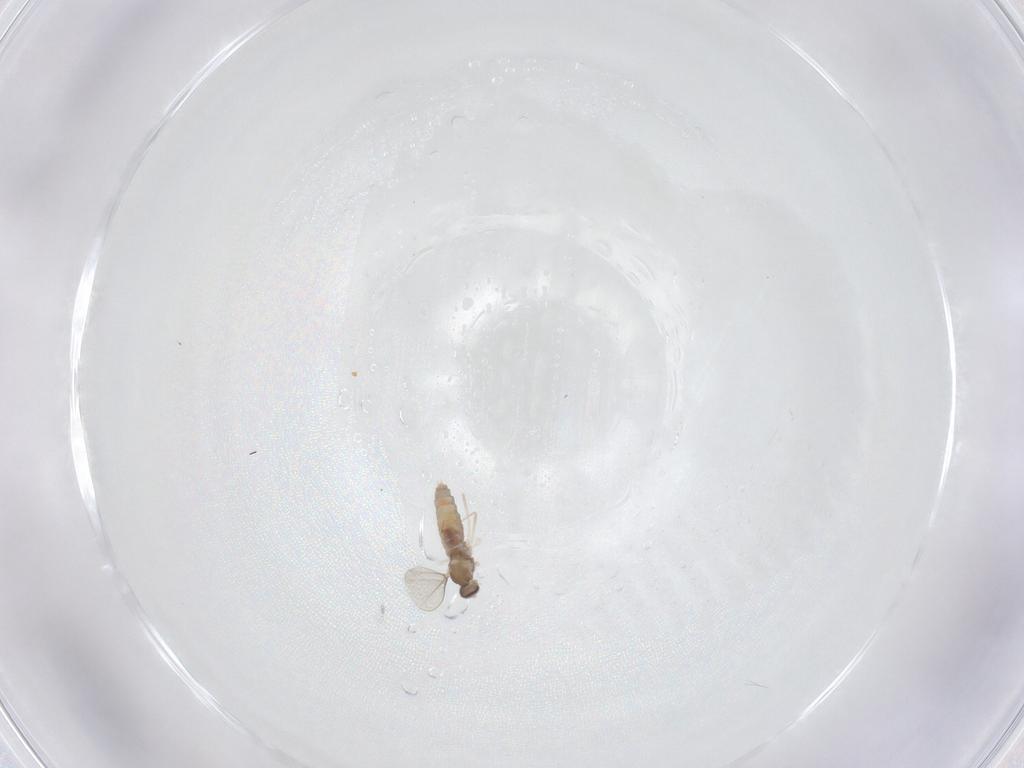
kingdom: Animalia
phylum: Arthropoda
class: Insecta
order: Diptera
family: Cecidomyiidae
